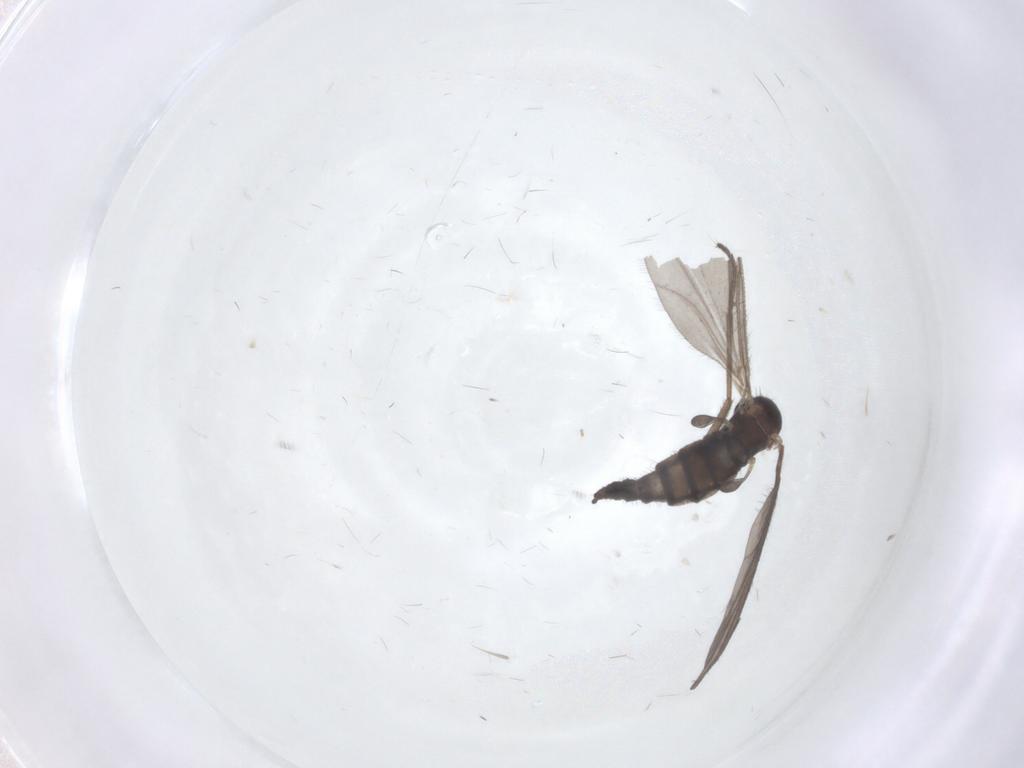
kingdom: Animalia
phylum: Arthropoda
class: Insecta
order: Diptera
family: Sciaridae
